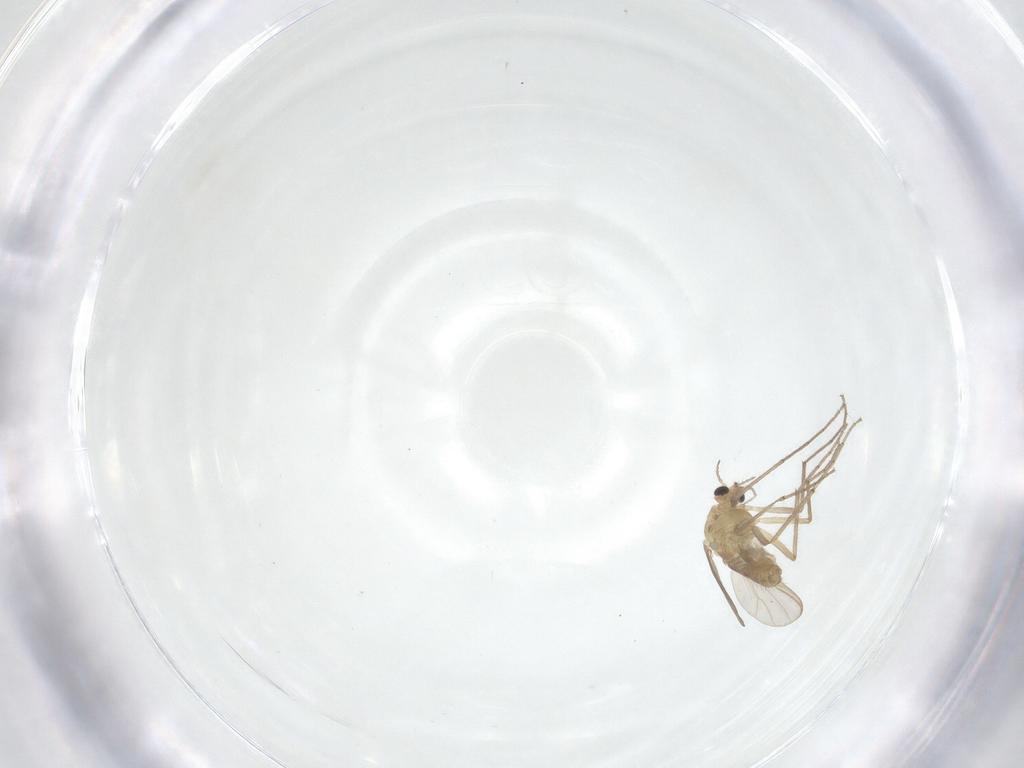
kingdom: Animalia
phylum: Arthropoda
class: Insecta
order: Diptera
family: Chironomidae
